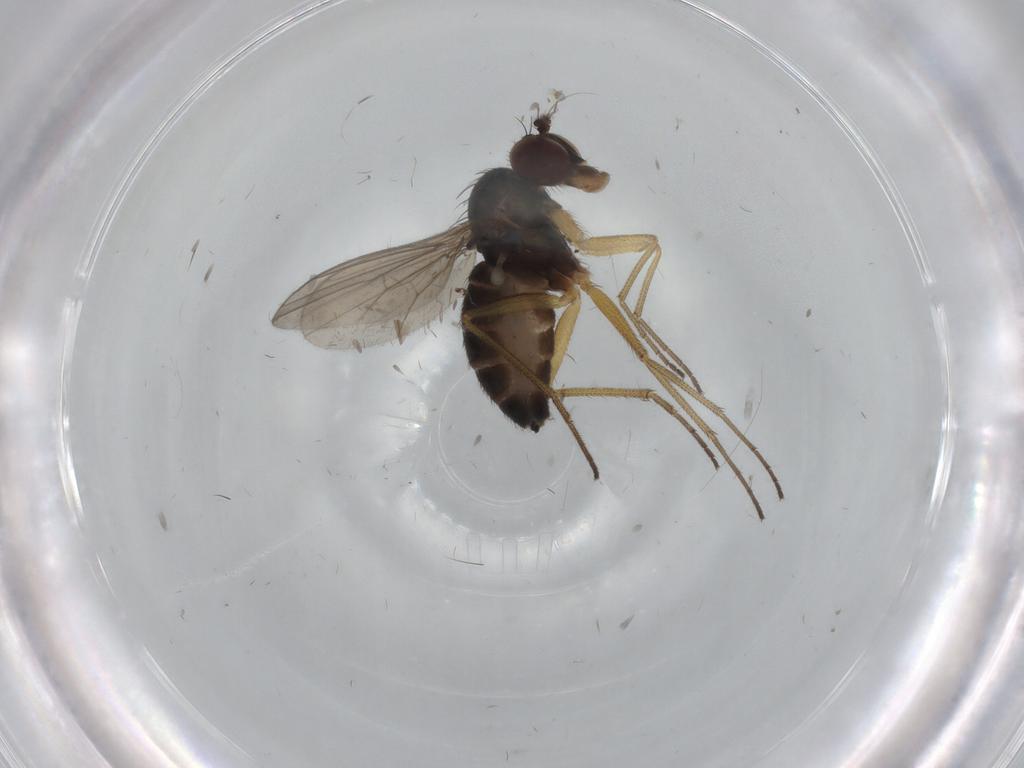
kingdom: Animalia
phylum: Arthropoda
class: Insecta
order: Diptera
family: Dolichopodidae
